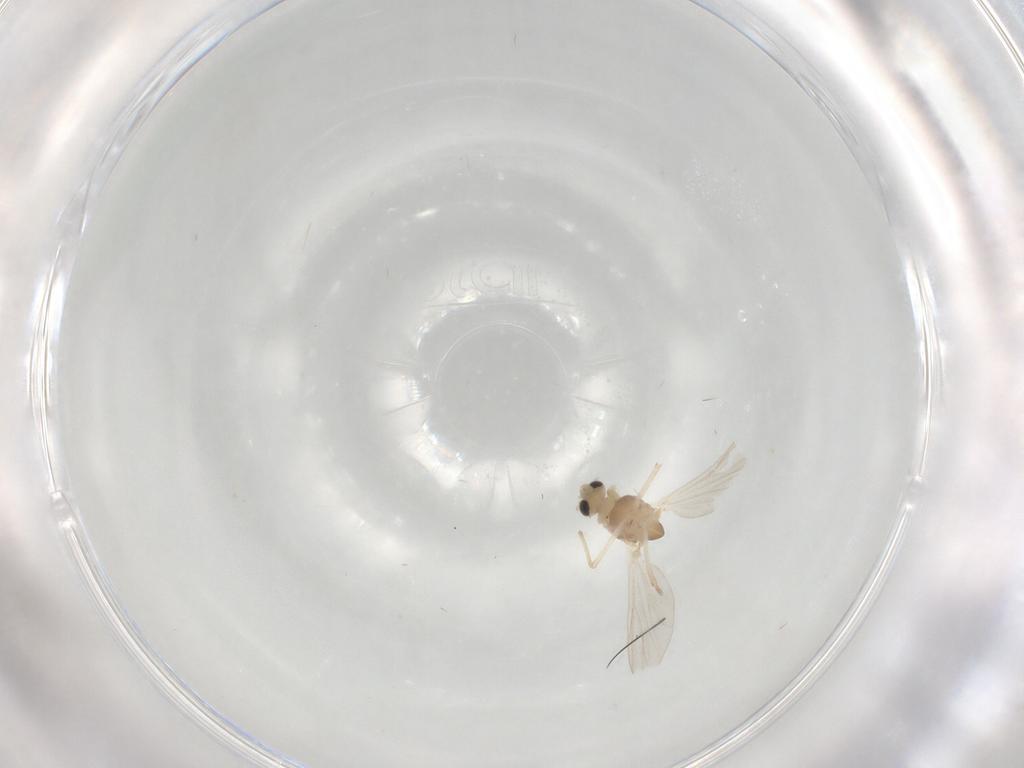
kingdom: Animalia
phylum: Arthropoda
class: Insecta
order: Diptera
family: Chironomidae
